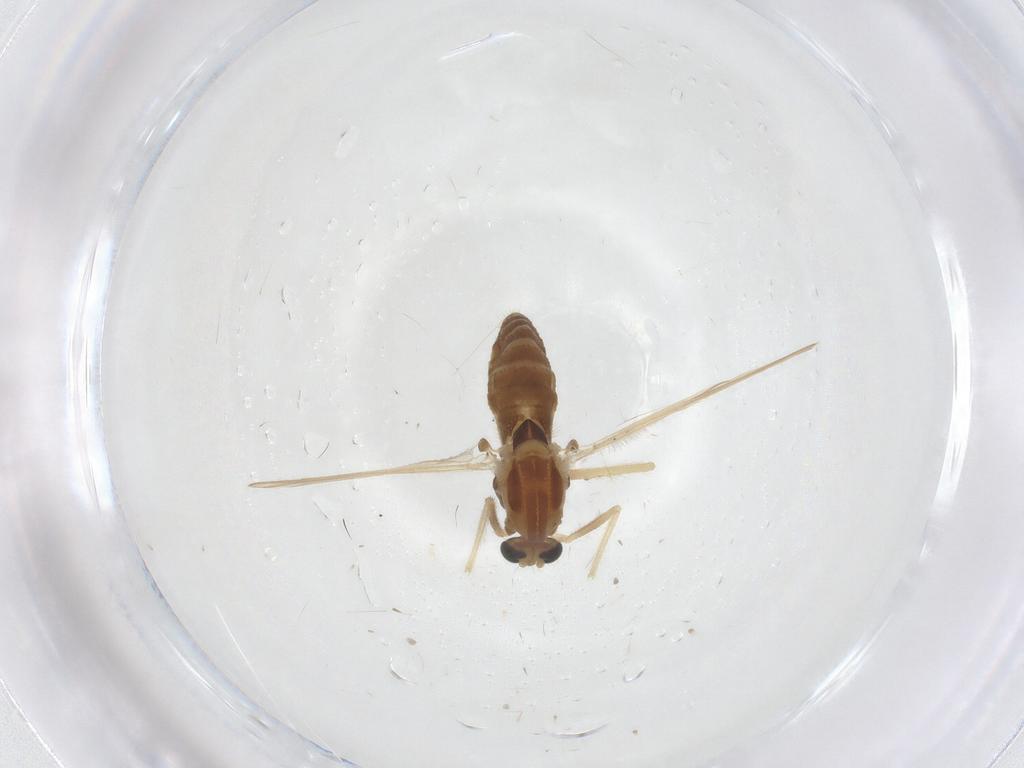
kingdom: Animalia
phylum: Arthropoda
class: Insecta
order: Diptera
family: Chironomidae
